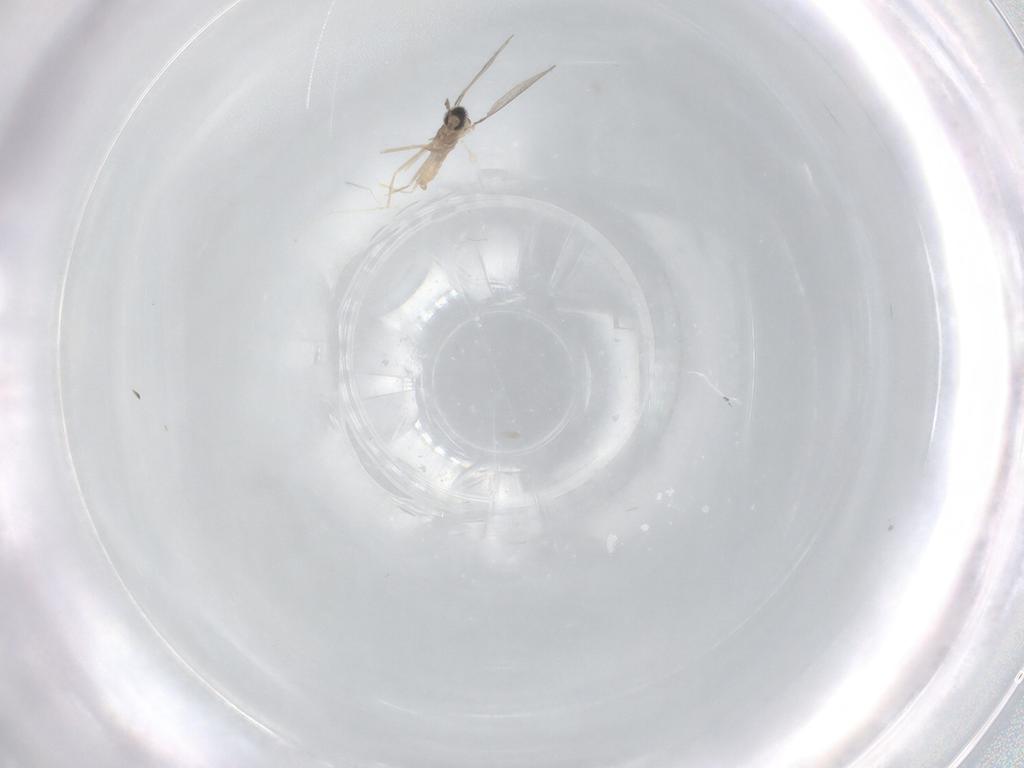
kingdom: Animalia
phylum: Arthropoda
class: Insecta
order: Diptera
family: Cecidomyiidae
